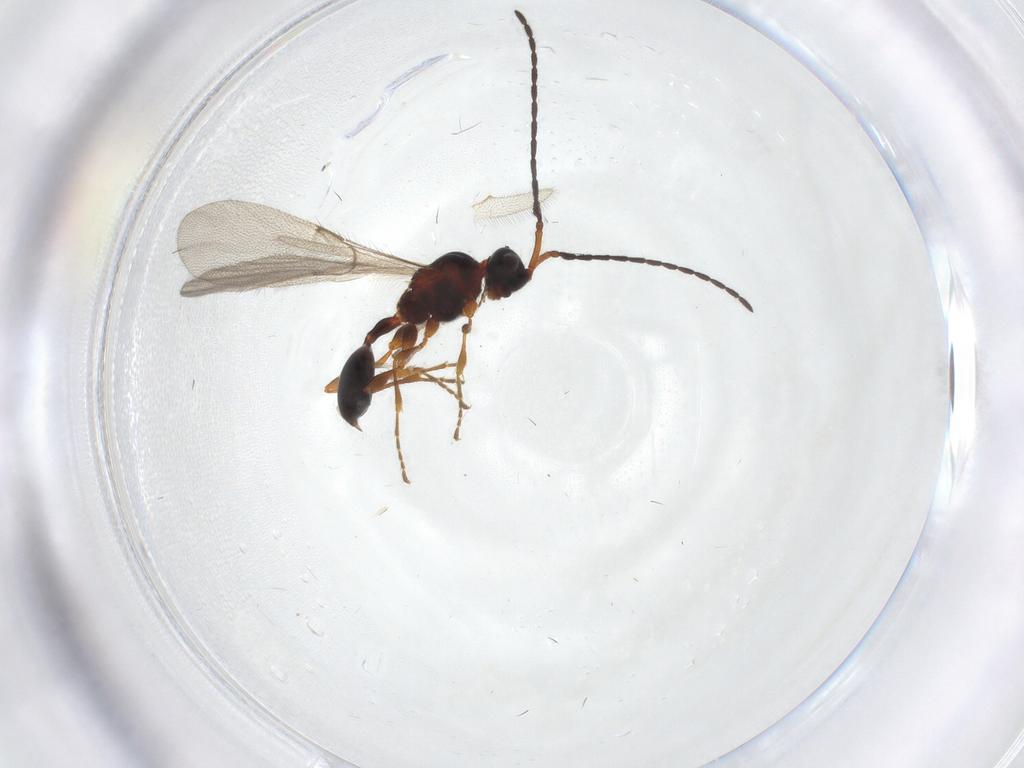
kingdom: Animalia
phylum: Arthropoda
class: Insecta
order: Hymenoptera
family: Diapriidae
